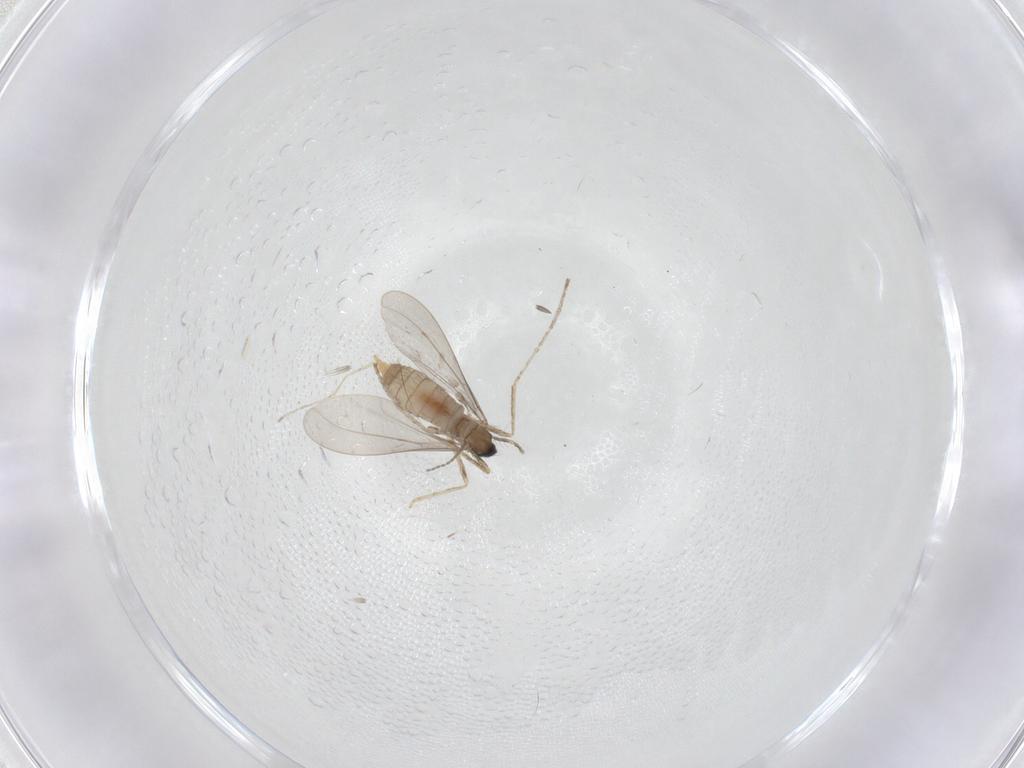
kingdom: Animalia
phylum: Arthropoda
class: Insecta
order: Diptera
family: Cecidomyiidae
